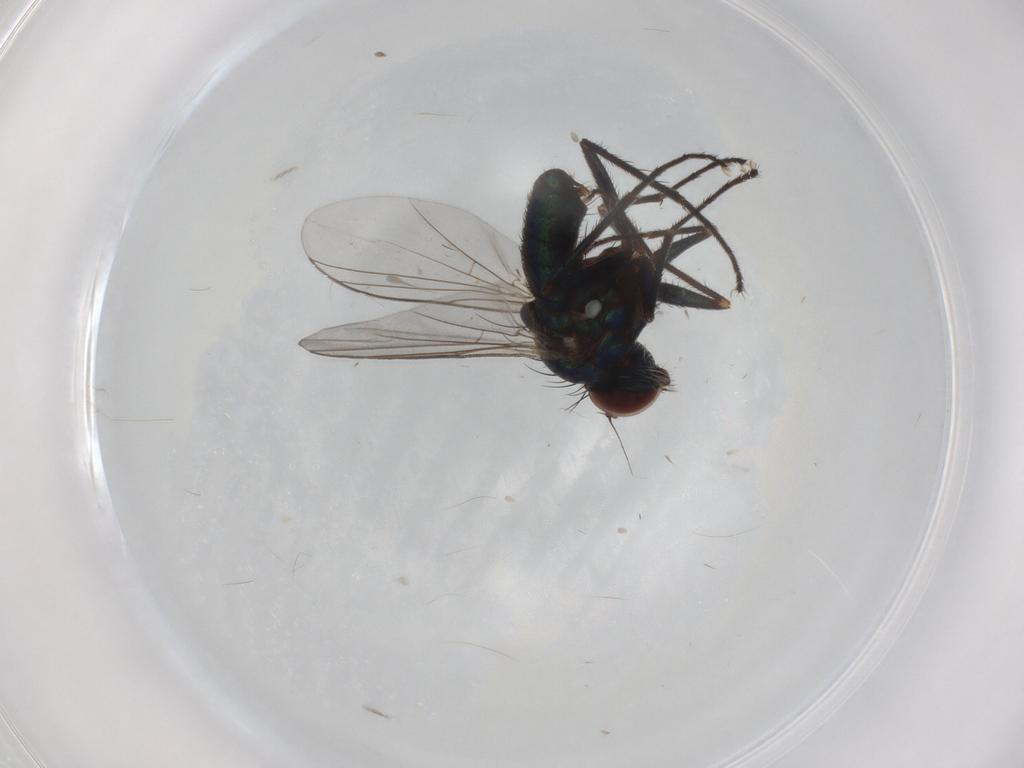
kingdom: Animalia
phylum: Arthropoda
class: Insecta
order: Diptera
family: Dolichopodidae
